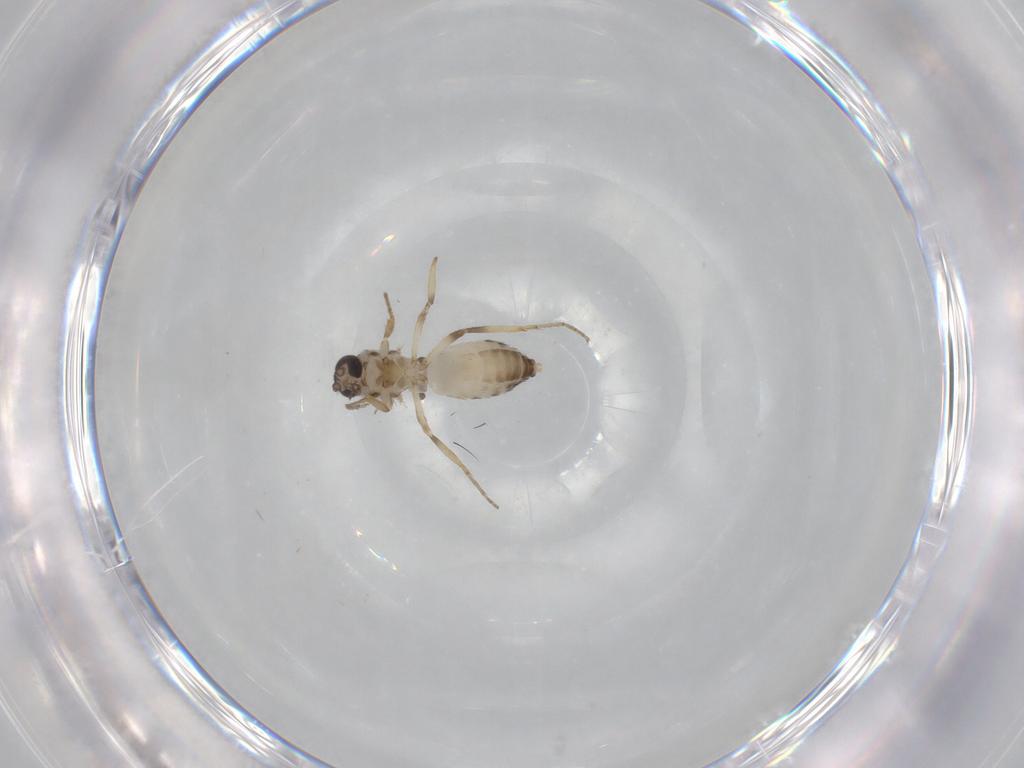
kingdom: Animalia
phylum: Arthropoda
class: Insecta
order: Diptera
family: Ceratopogonidae
